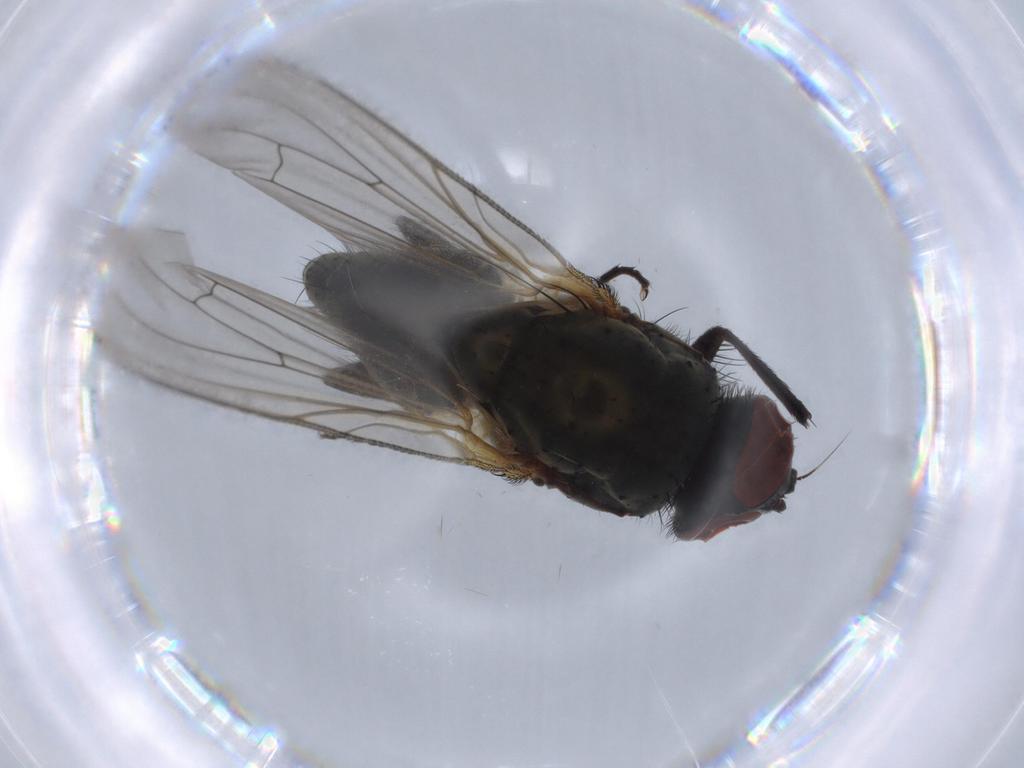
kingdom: Animalia
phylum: Arthropoda
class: Insecta
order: Diptera
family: Sciaridae
